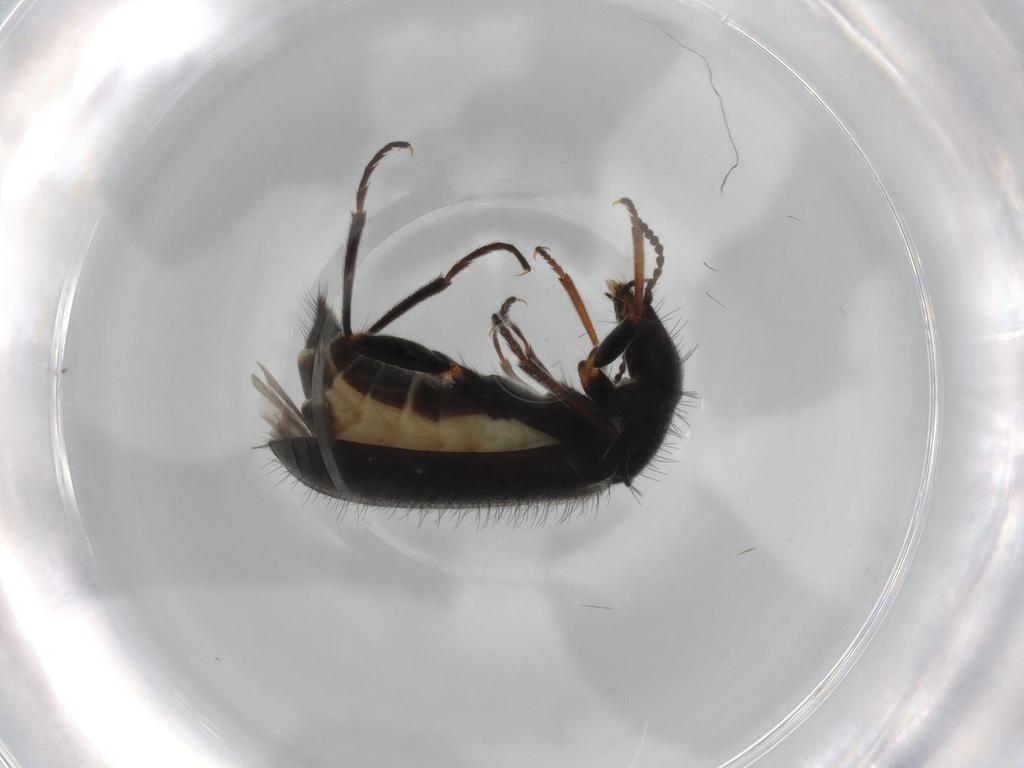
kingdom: Animalia
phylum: Arthropoda
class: Insecta
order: Coleoptera
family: Melyridae
